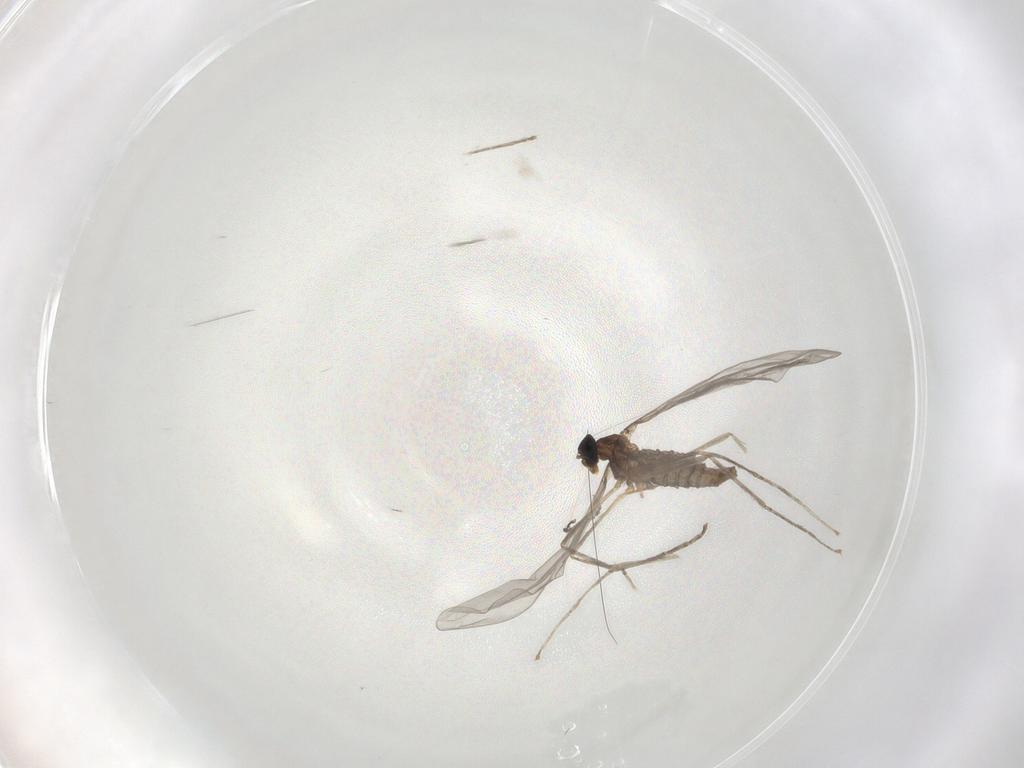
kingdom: Animalia
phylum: Arthropoda
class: Insecta
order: Diptera
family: Cecidomyiidae
